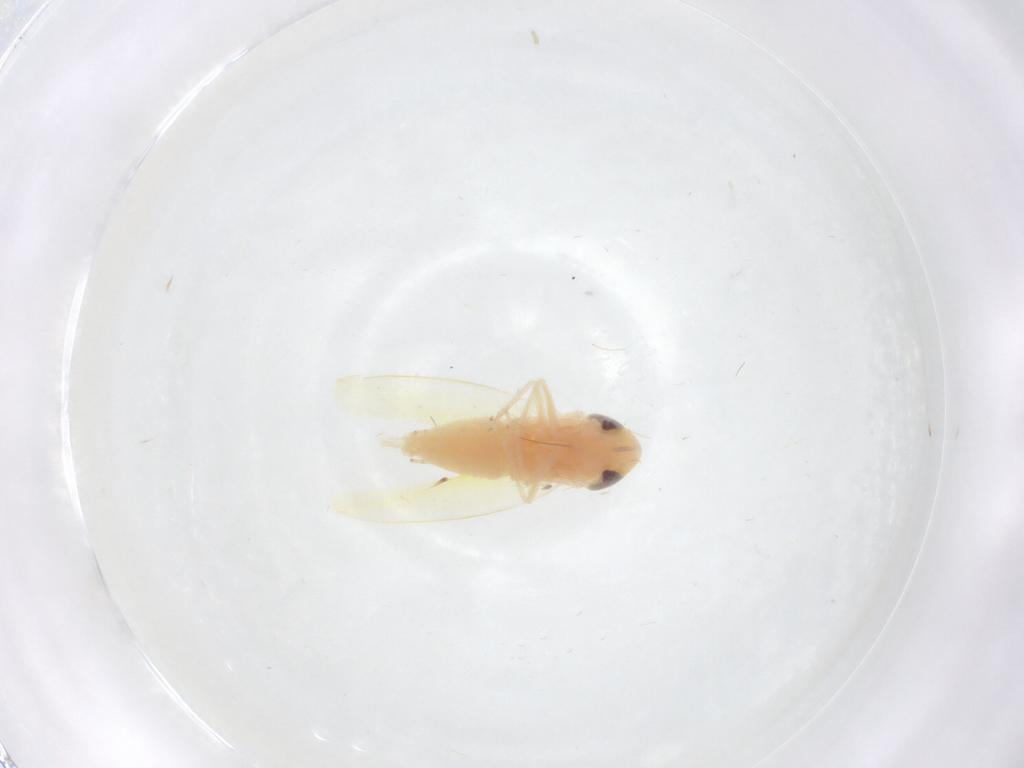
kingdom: Animalia
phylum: Arthropoda
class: Insecta
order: Hemiptera
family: Cicadellidae
